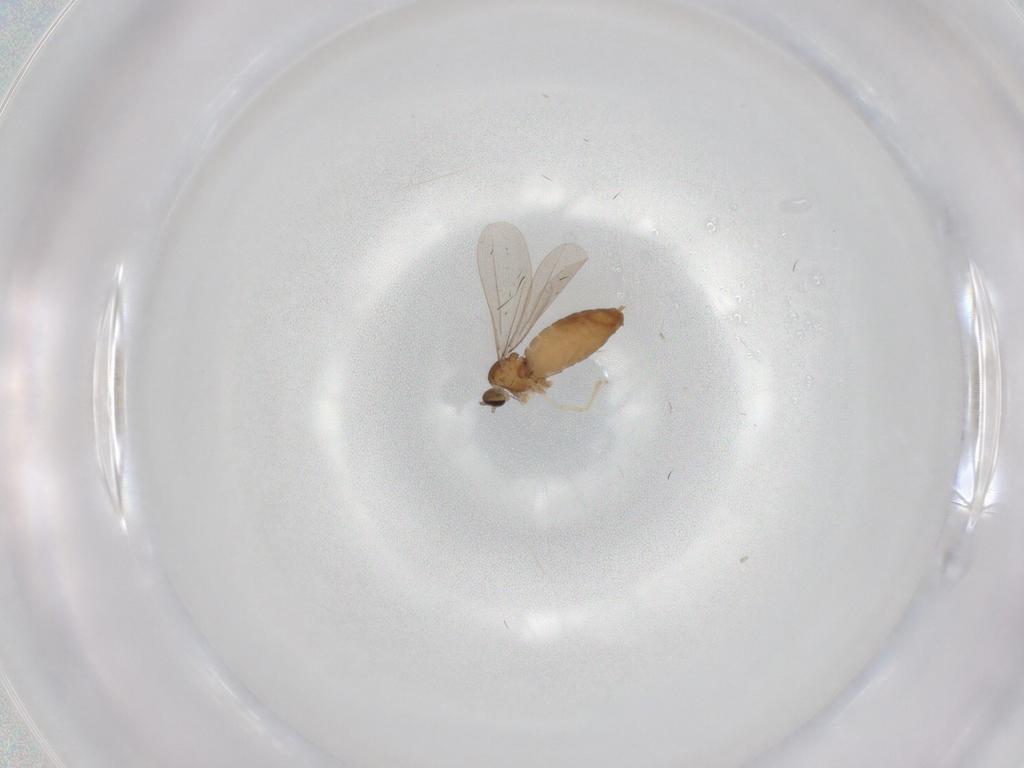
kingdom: Animalia
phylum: Arthropoda
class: Insecta
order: Diptera
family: Cecidomyiidae
